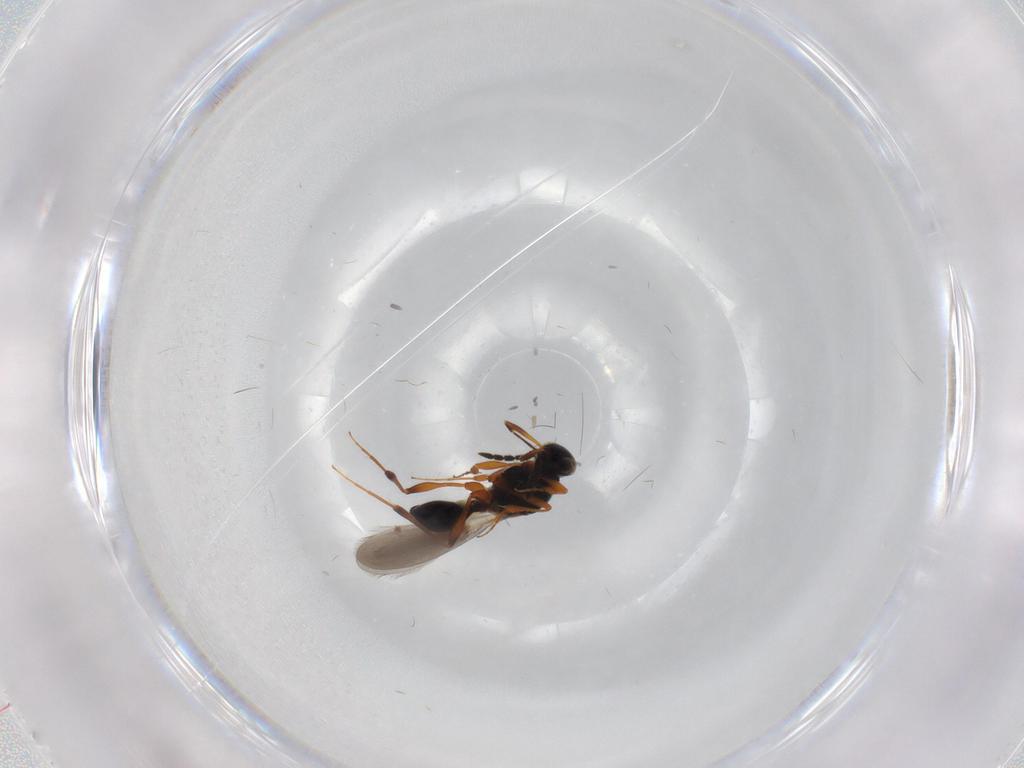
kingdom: Animalia
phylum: Arthropoda
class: Insecta
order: Hymenoptera
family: Platygastridae
